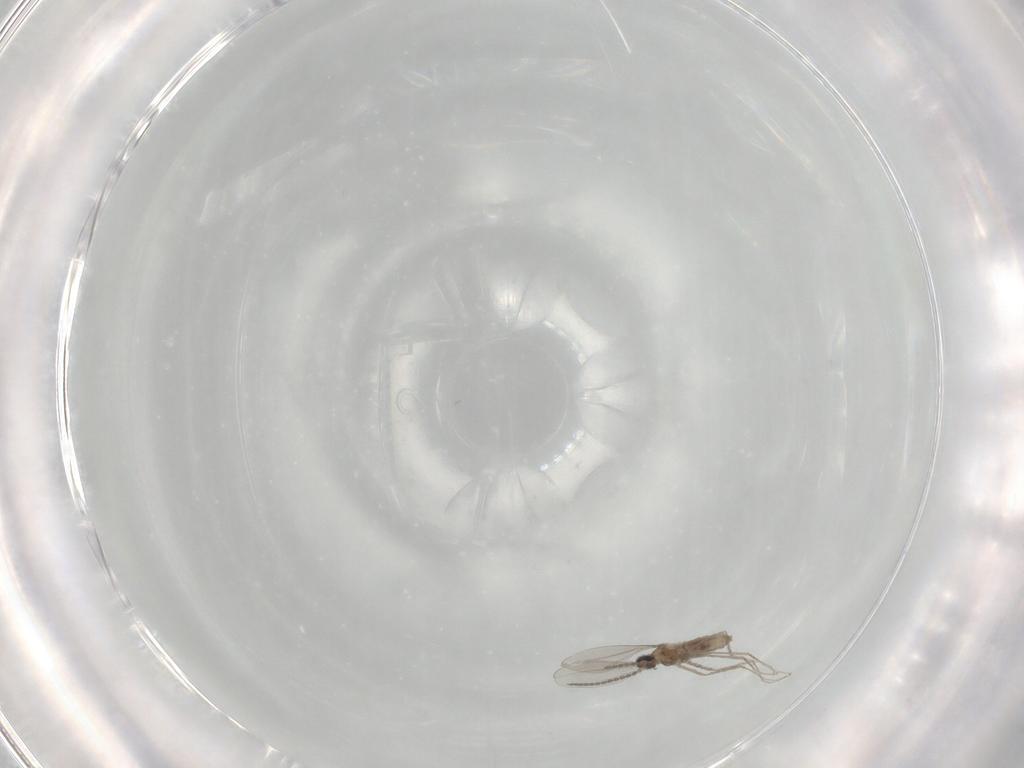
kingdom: Animalia
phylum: Arthropoda
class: Insecta
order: Diptera
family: Cecidomyiidae
